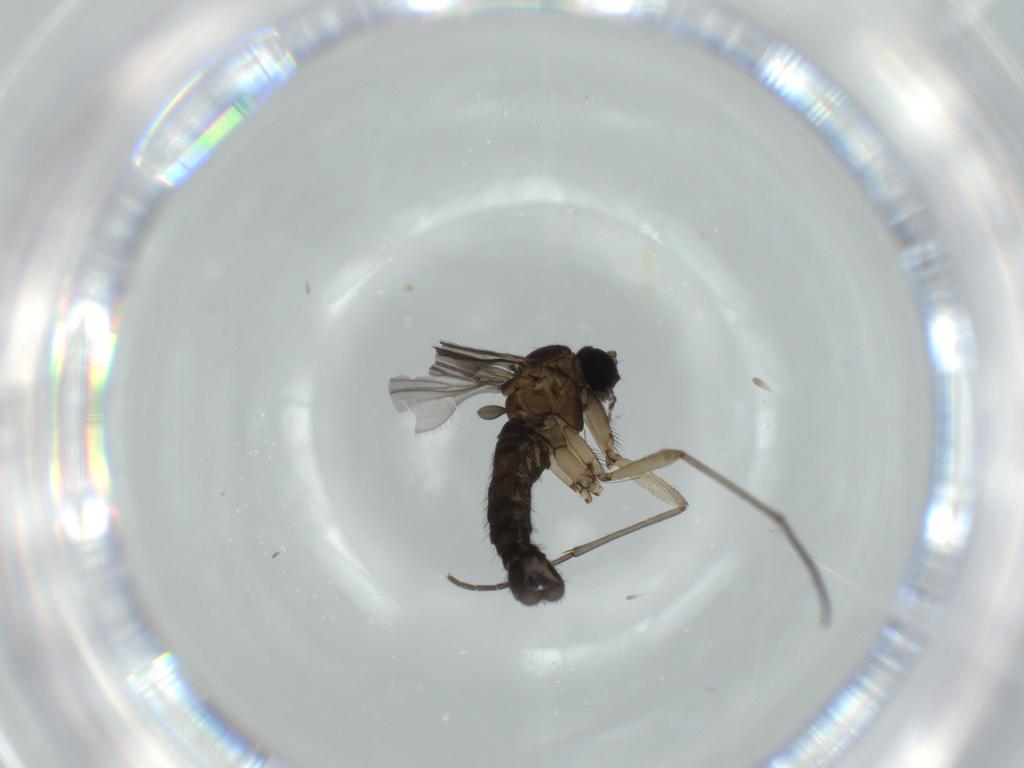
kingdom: Animalia
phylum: Arthropoda
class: Insecta
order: Diptera
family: Sciaridae
